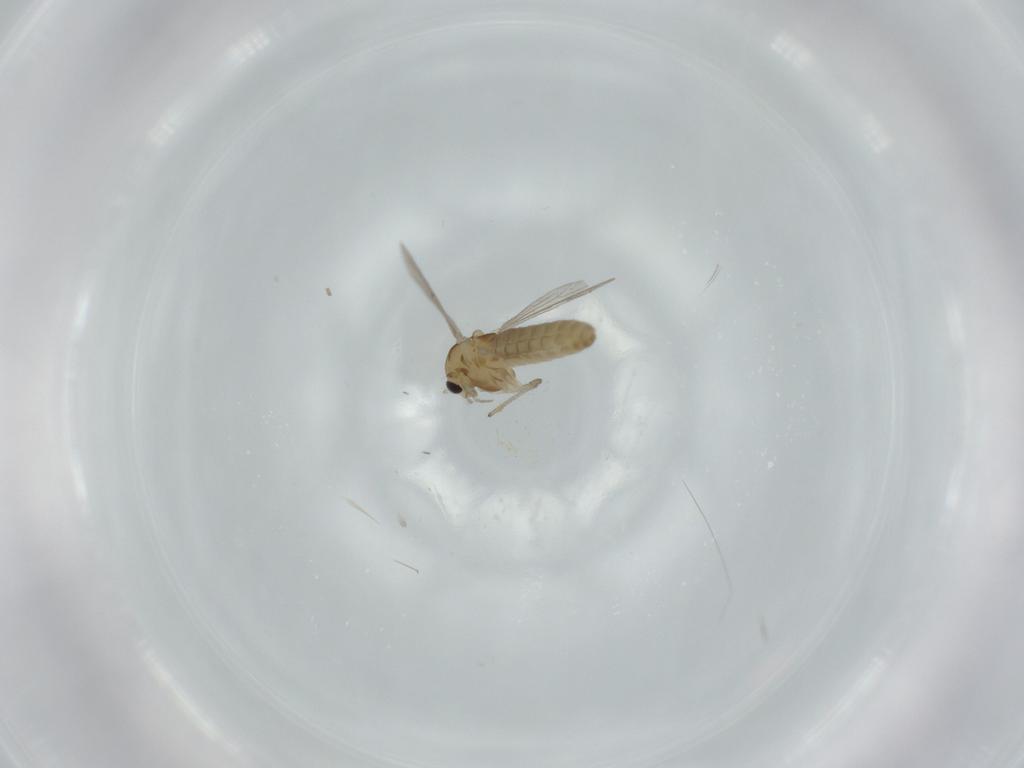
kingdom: Animalia
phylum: Arthropoda
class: Insecta
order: Diptera
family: Chironomidae
